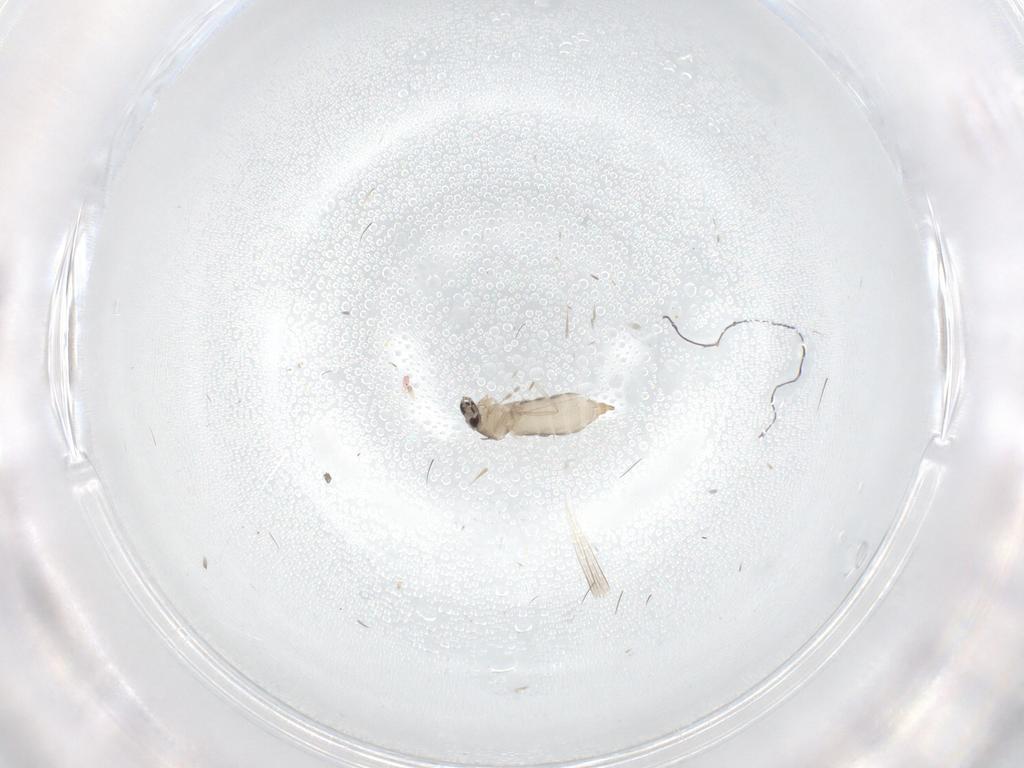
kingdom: Animalia
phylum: Arthropoda
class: Insecta
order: Diptera
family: Cecidomyiidae
